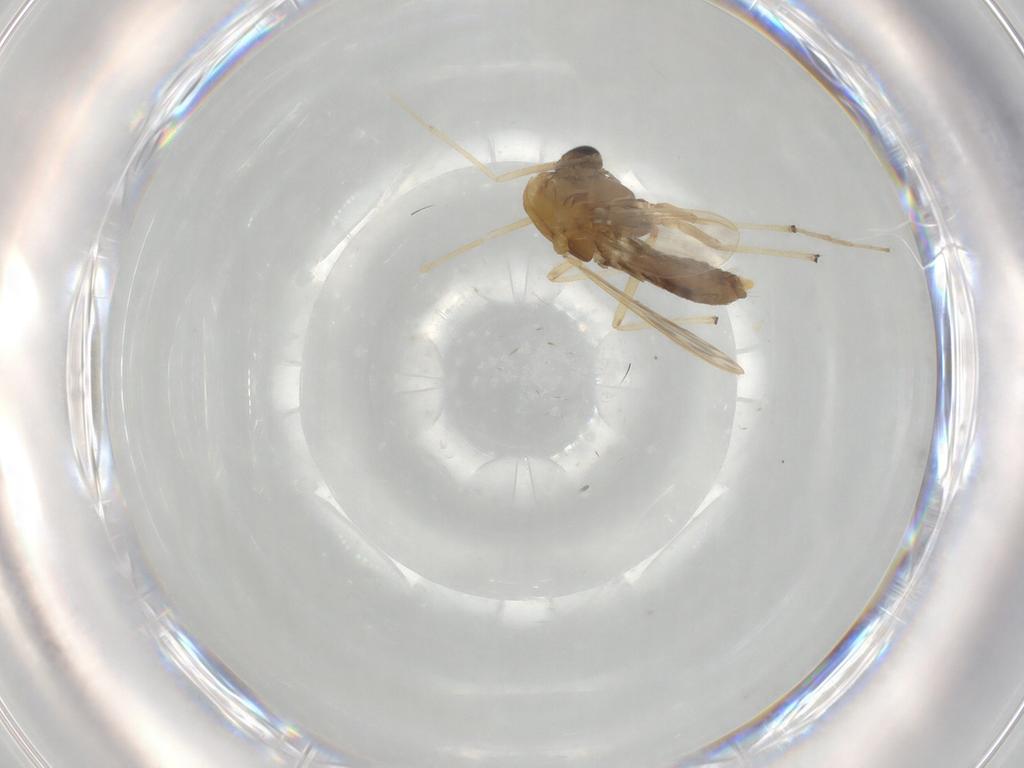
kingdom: Animalia
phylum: Arthropoda
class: Insecta
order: Diptera
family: Chironomidae
